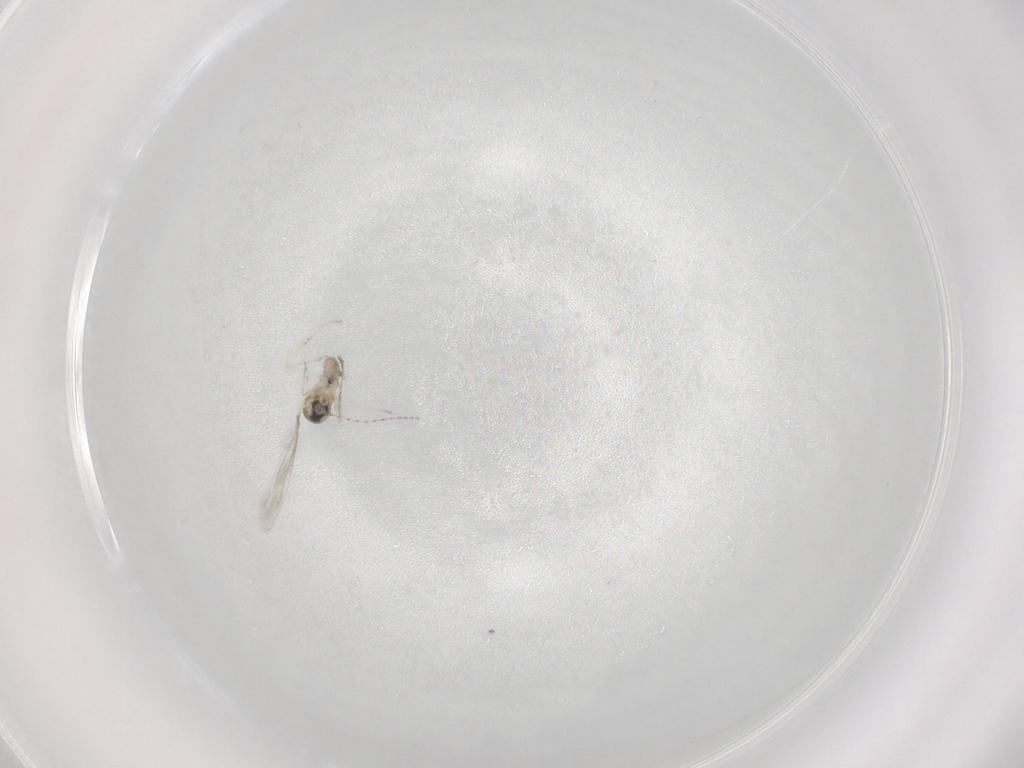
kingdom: Animalia
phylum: Arthropoda
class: Insecta
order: Diptera
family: Cecidomyiidae
